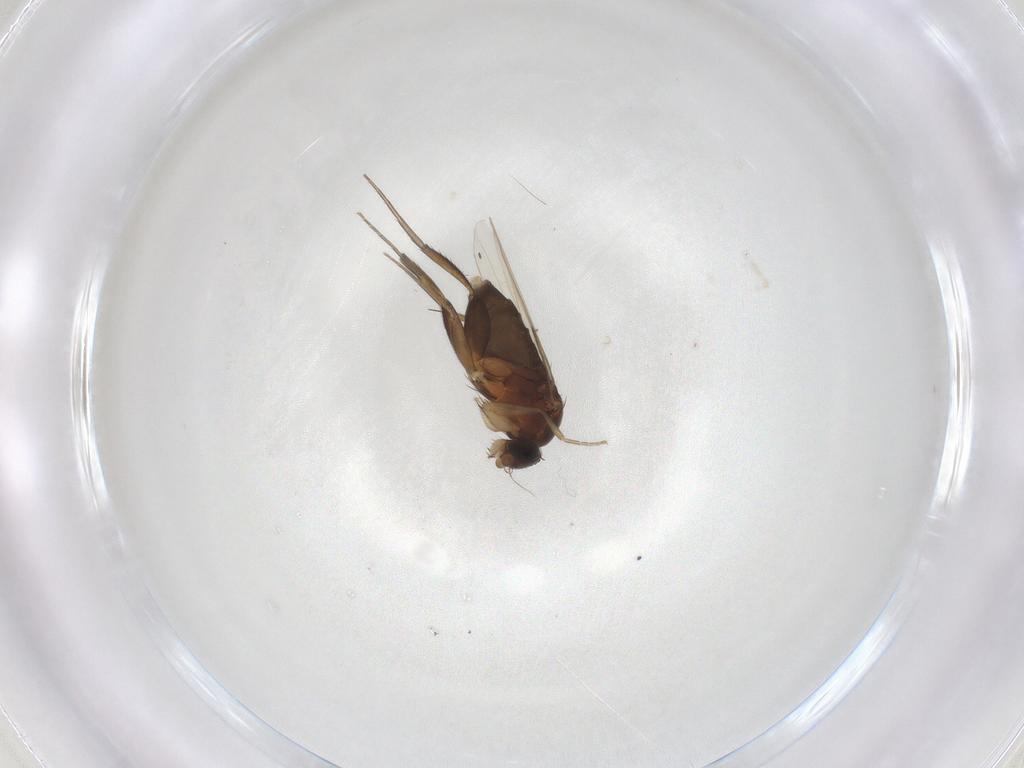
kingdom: Animalia
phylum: Arthropoda
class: Insecta
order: Diptera
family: Phoridae
